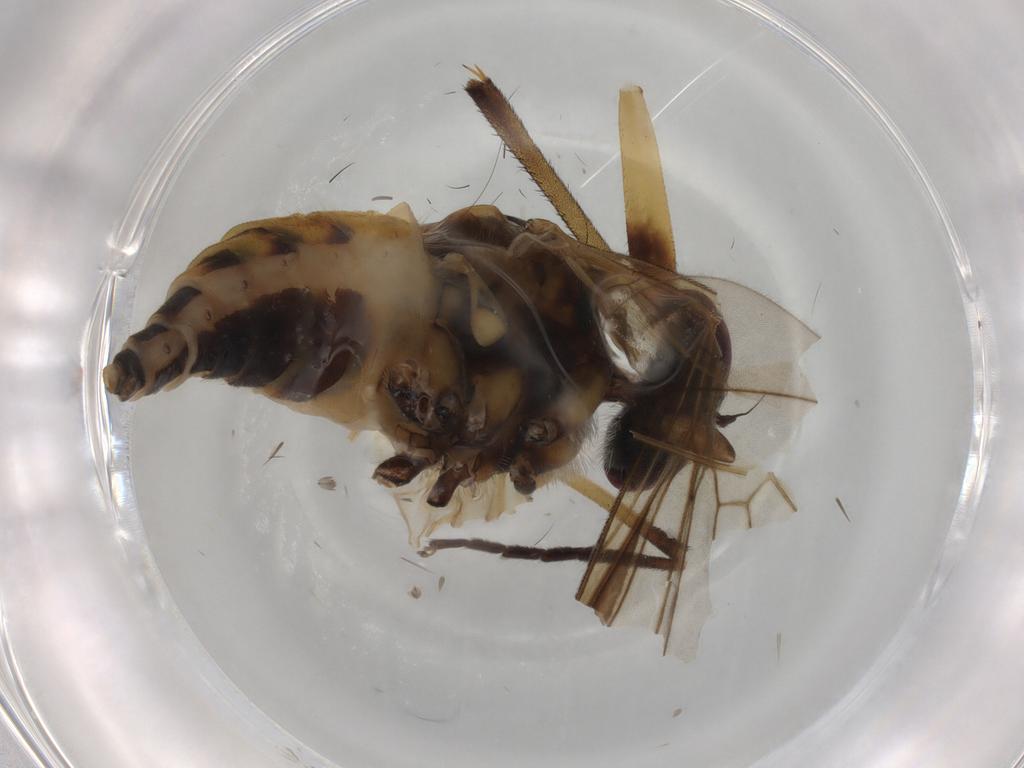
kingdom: Animalia
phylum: Arthropoda
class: Insecta
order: Diptera
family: Rhagionidae
